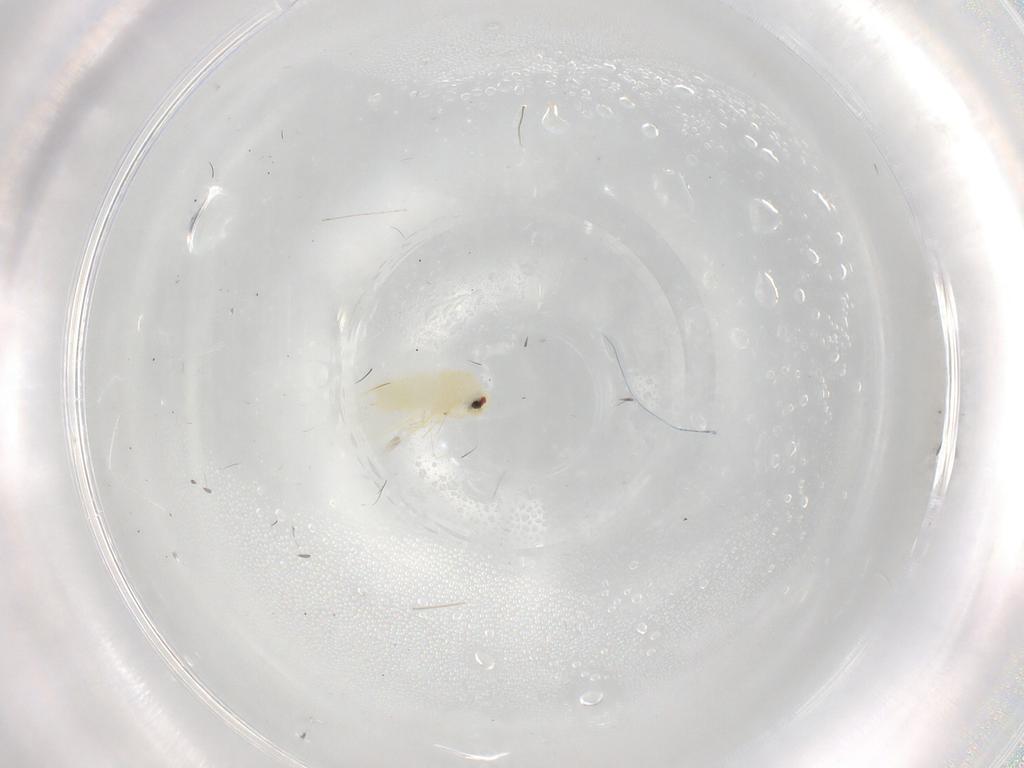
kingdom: Animalia
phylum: Arthropoda
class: Insecta
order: Hemiptera
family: Aleyrodidae
